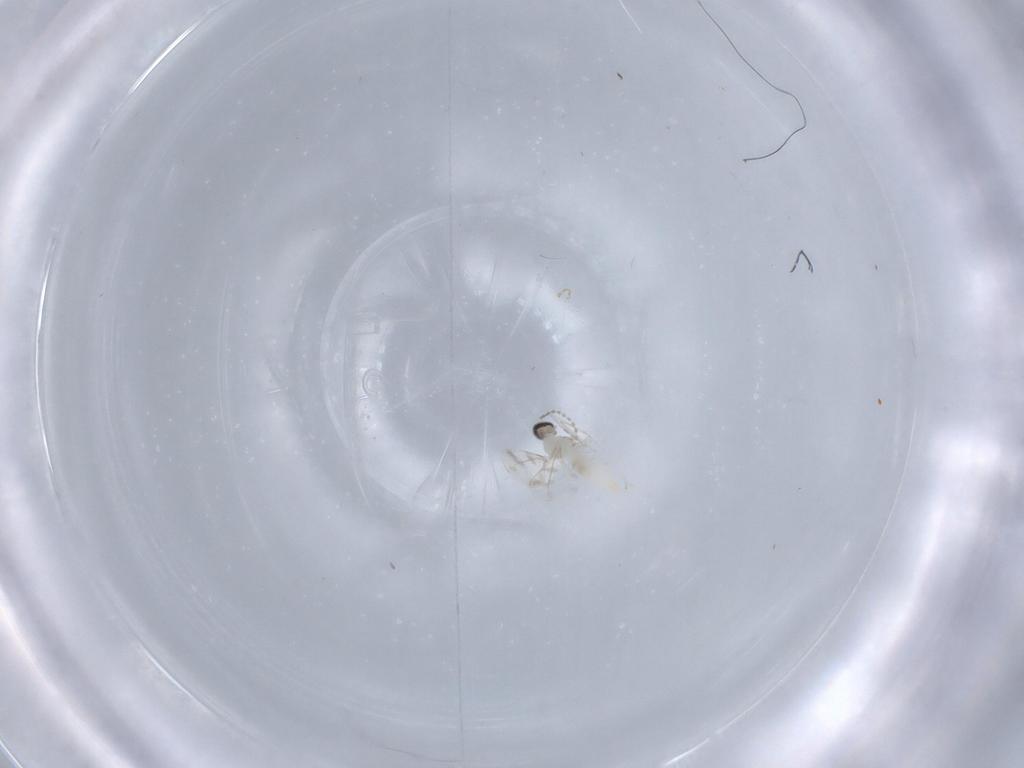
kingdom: Animalia
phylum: Arthropoda
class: Insecta
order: Diptera
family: Cecidomyiidae
